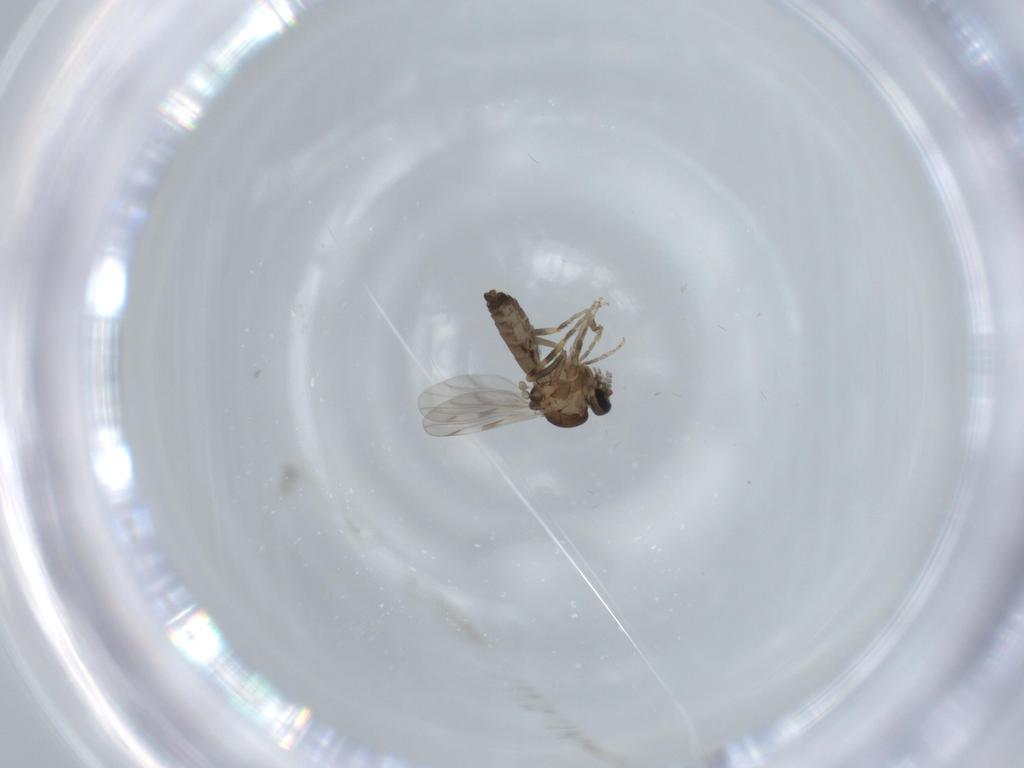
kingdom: Animalia
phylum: Arthropoda
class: Insecta
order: Diptera
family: Ceratopogonidae
